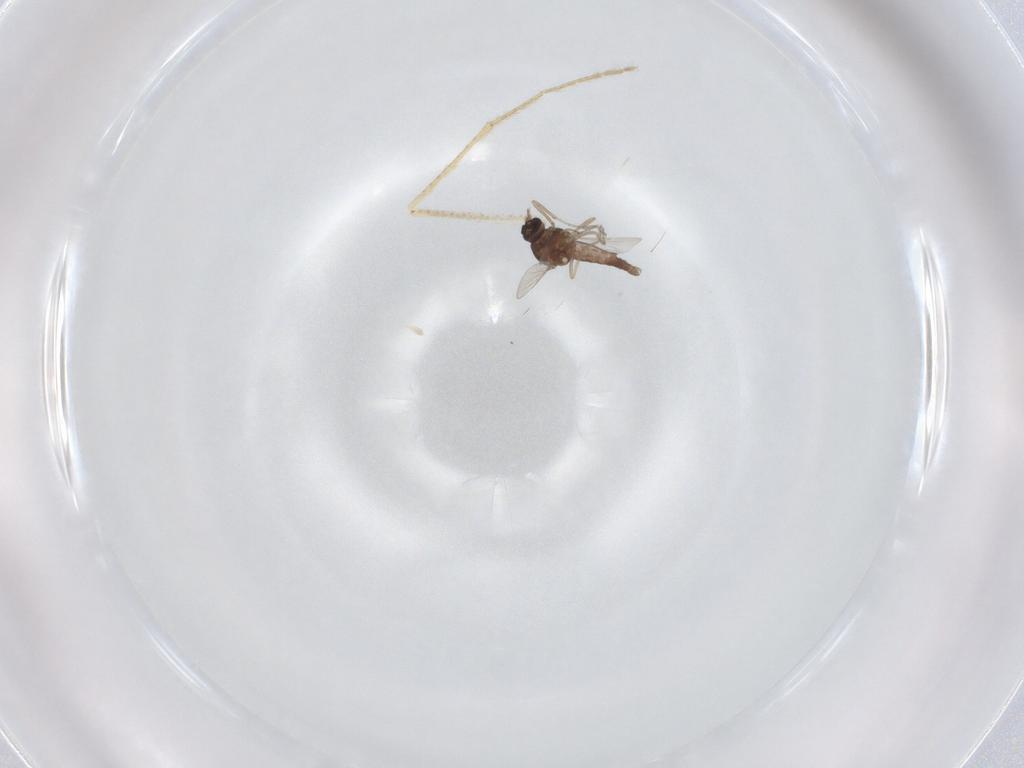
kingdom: Animalia
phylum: Arthropoda
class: Insecta
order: Diptera
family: Ceratopogonidae
